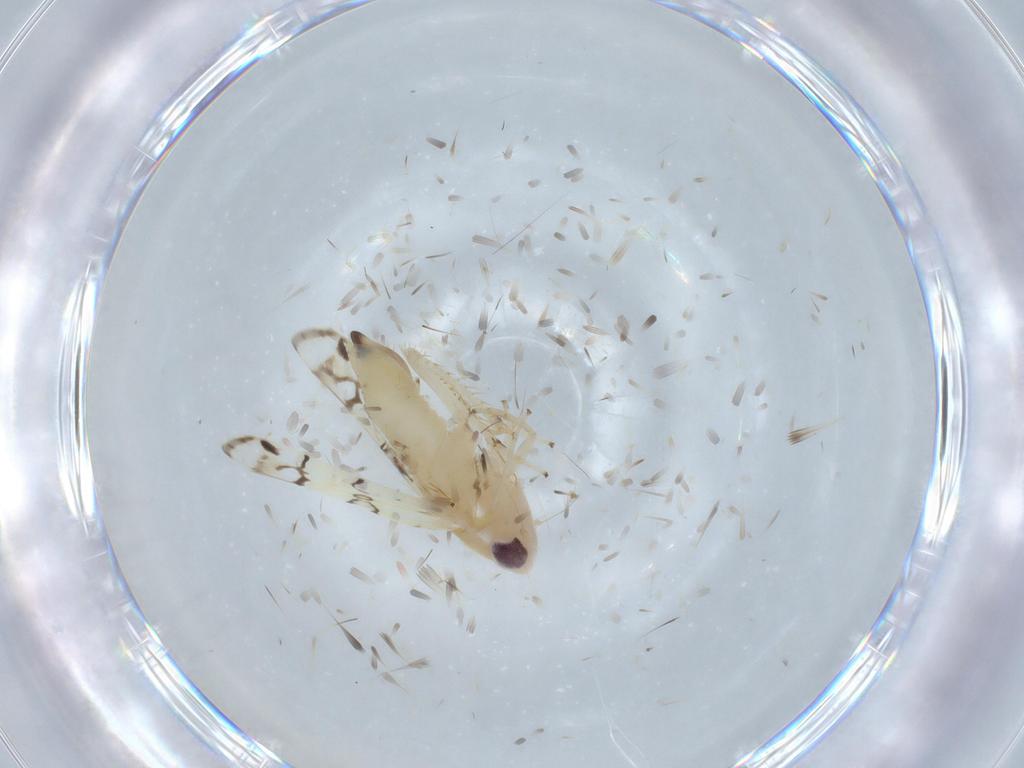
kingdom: Animalia
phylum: Arthropoda
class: Insecta
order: Hemiptera
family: Cicadellidae
